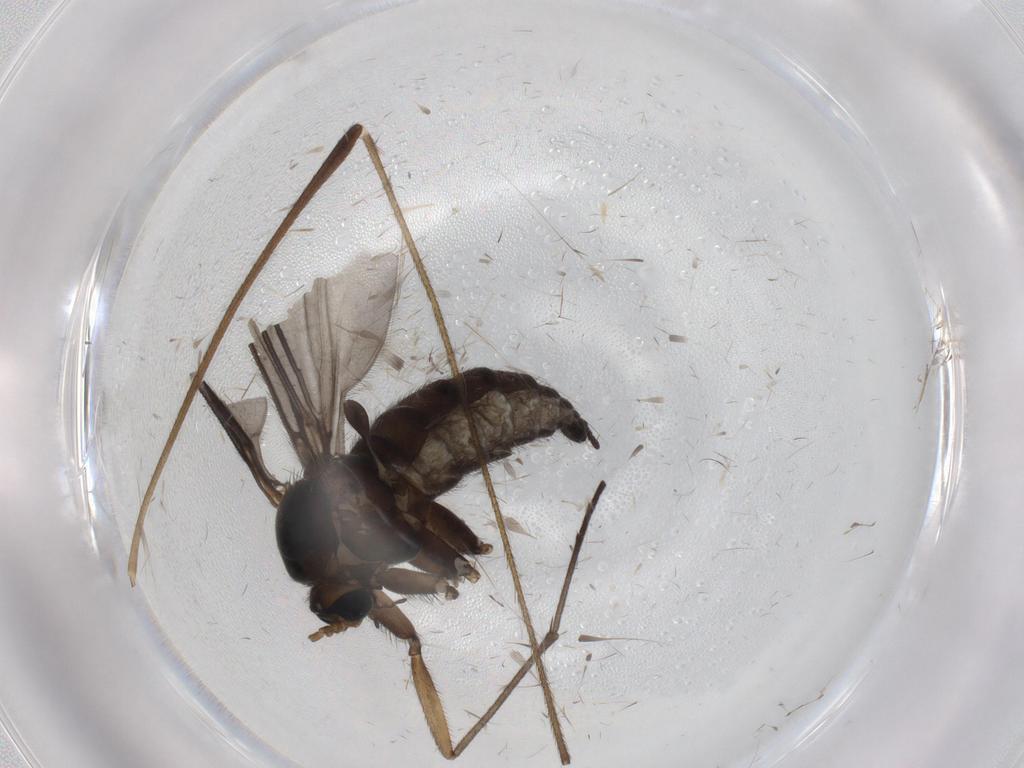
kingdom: Animalia
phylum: Arthropoda
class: Insecta
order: Diptera
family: Sciaridae
